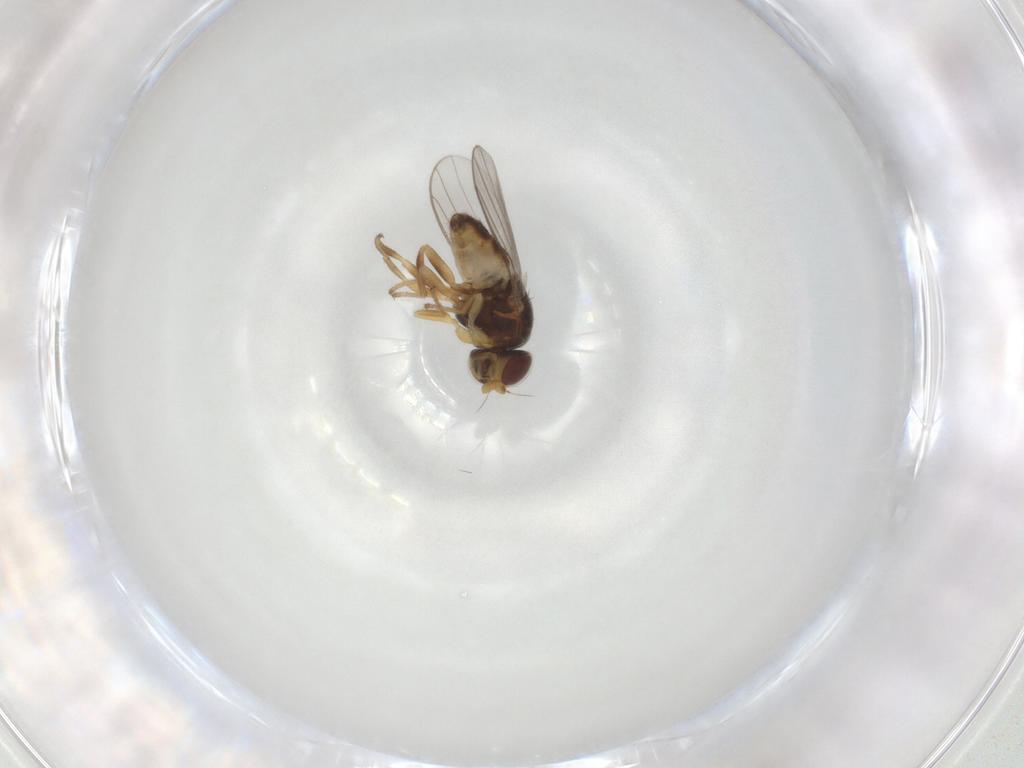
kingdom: Animalia
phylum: Arthropoda
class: Insecta
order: Diptera
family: Chloropidae
